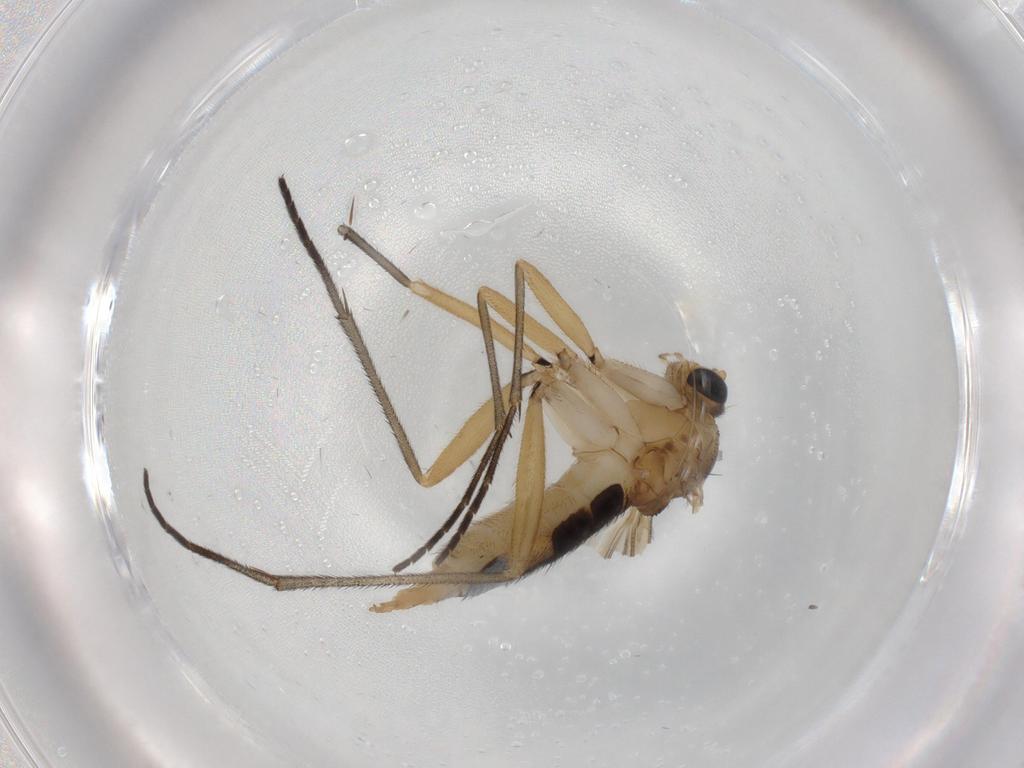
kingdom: Animalia
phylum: Arthropoda
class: Insecta
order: Diptera
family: Sciaridae
